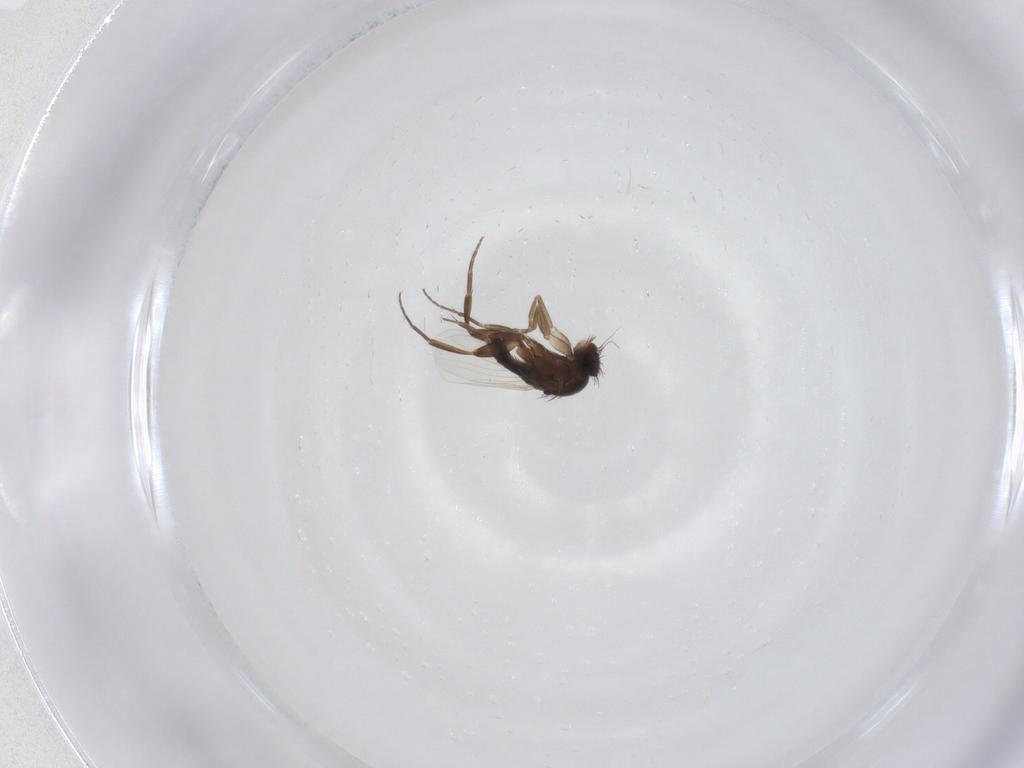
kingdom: Animalia
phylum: Arthropoda
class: Insecta
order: Diptera
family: Phoridae
